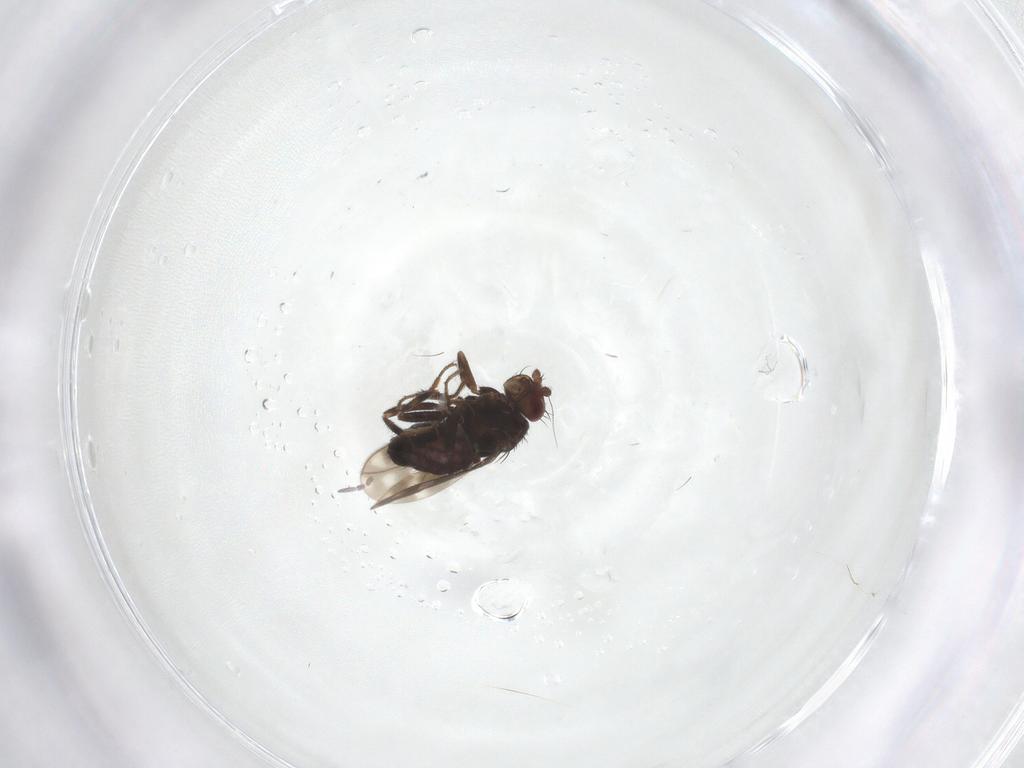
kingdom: Animalia
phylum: Arthropoda
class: Insecta
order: Diptera
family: Sphaeroceridae
